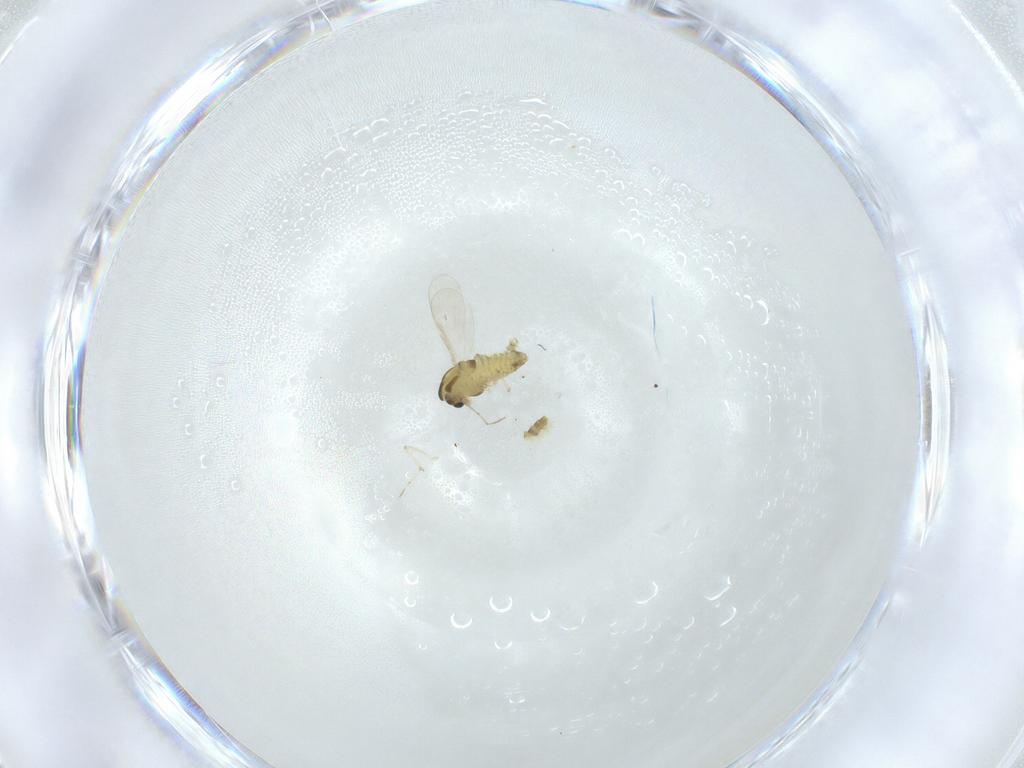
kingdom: Animalia
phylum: Arthropoda
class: Insecta
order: Diptera
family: Chironomidae
